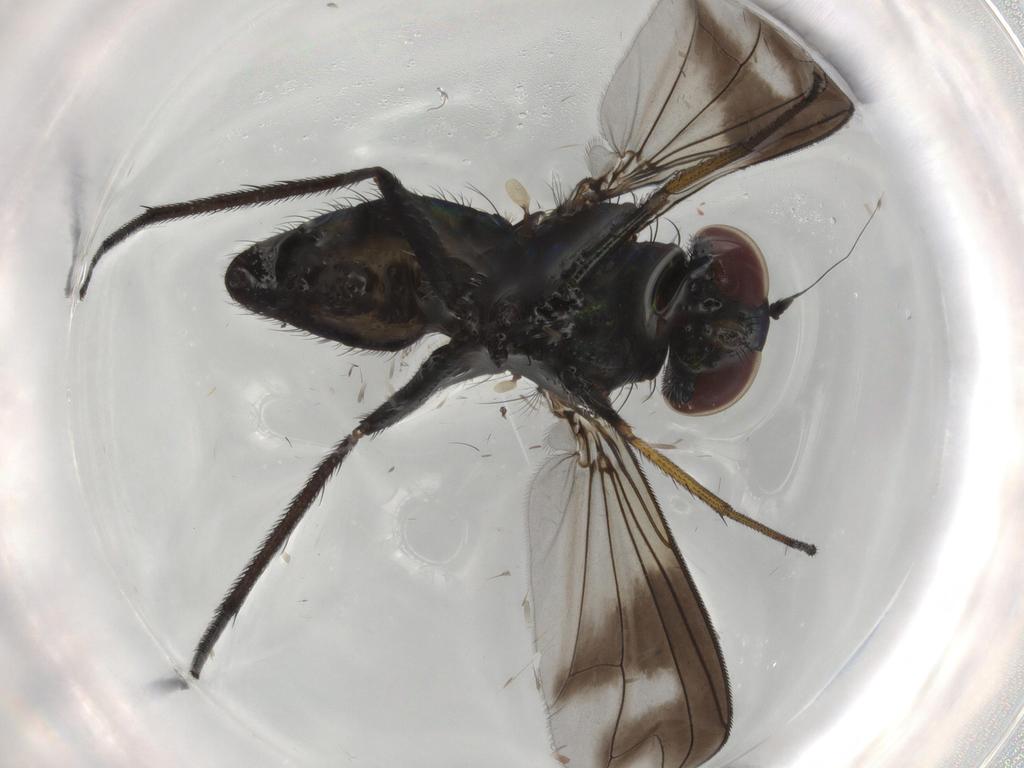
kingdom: Animalia
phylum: Arthropoda
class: Insecta
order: Diptera
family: Dolichopodidae
